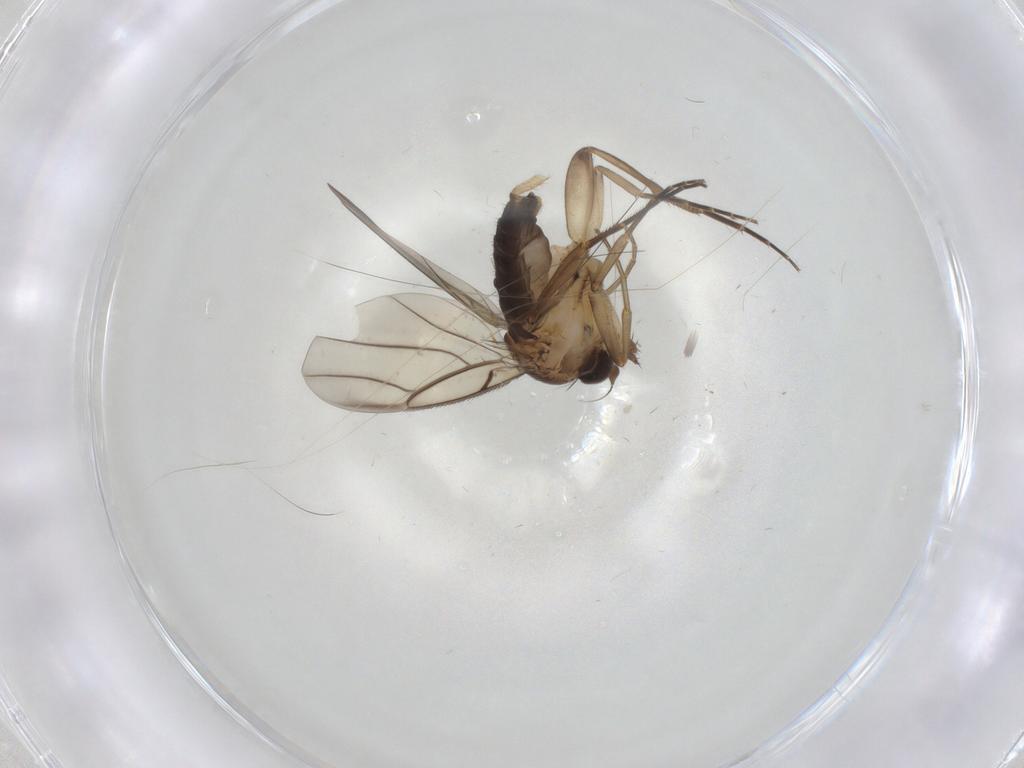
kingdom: Animalia
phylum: Arthropoda
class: Insecta
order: Diptera
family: Phoridae
